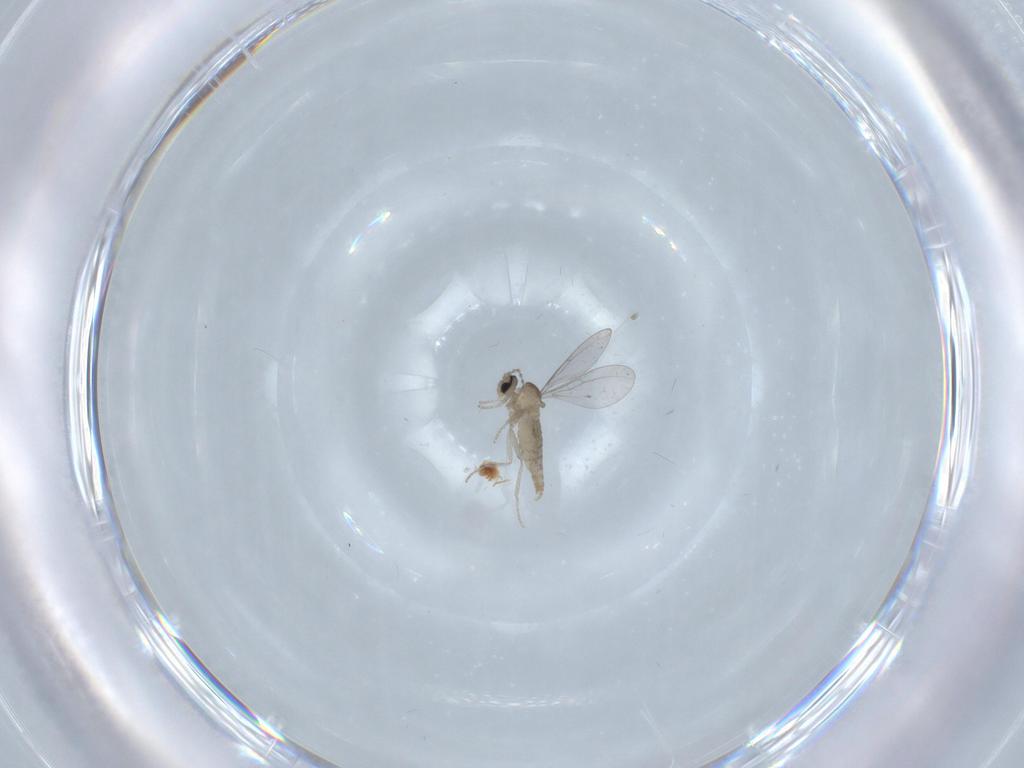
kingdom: Animalia
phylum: Arthropoda
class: Insecta
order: Diptera
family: Cecidomyiidae
